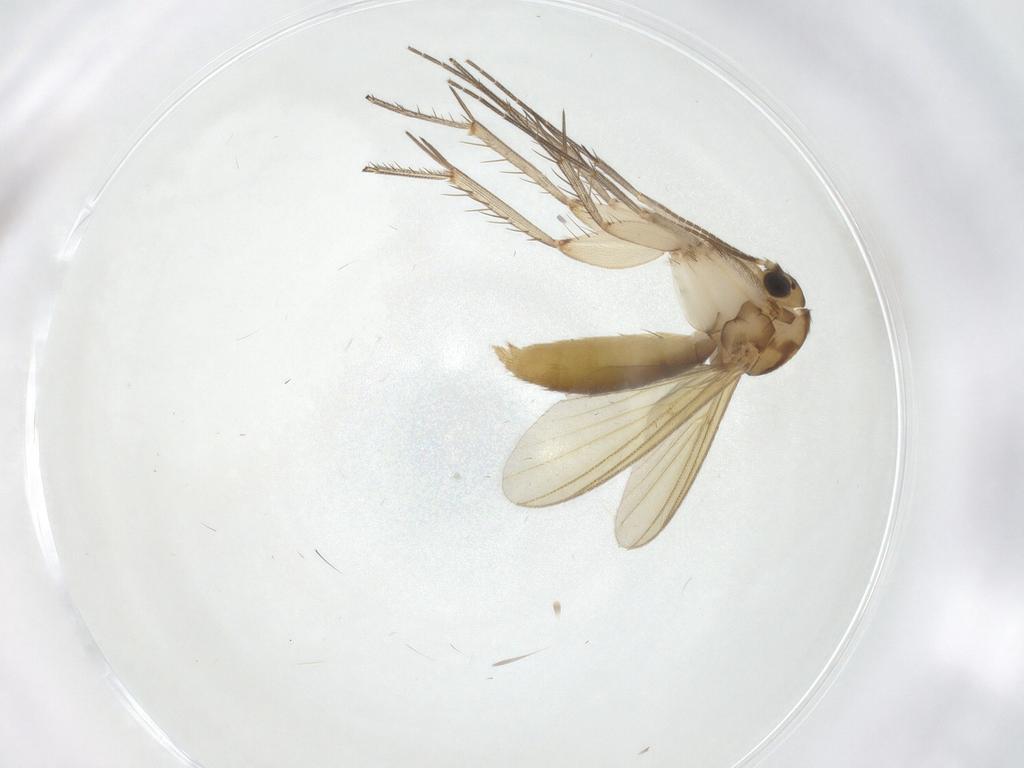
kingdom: Animalia
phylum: Arthropoda
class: Insecta
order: Diptera
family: Mycetophilidae
